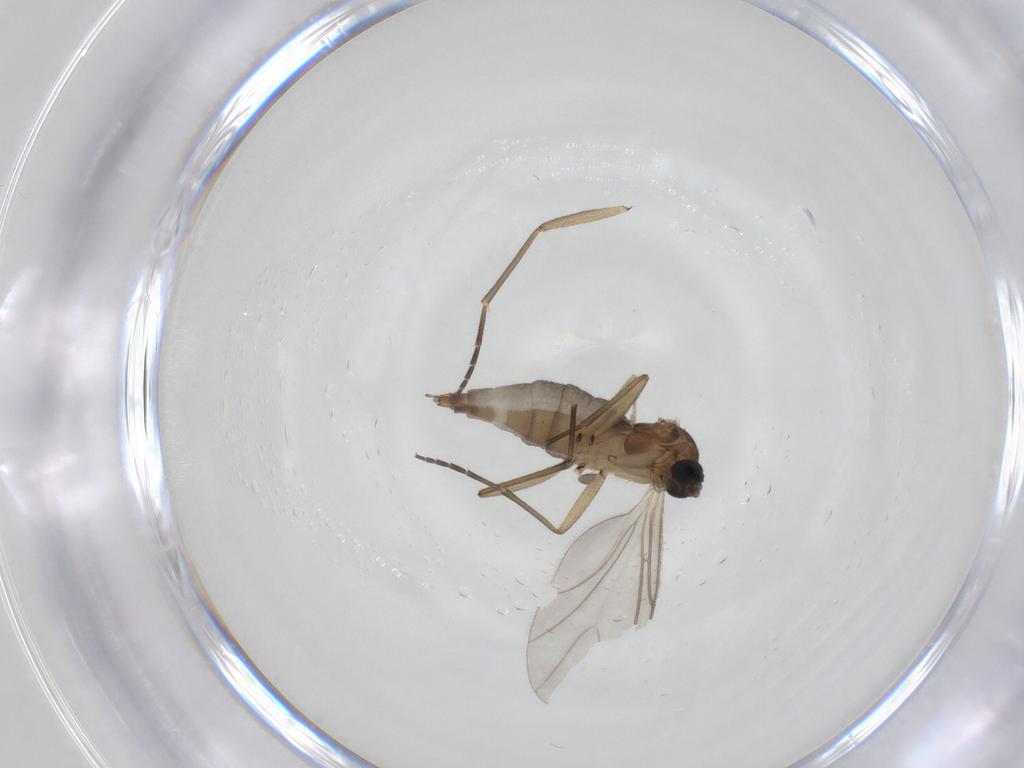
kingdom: Animalia
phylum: Arthropoda
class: Insecta
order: Diptera
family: Sciaridae
